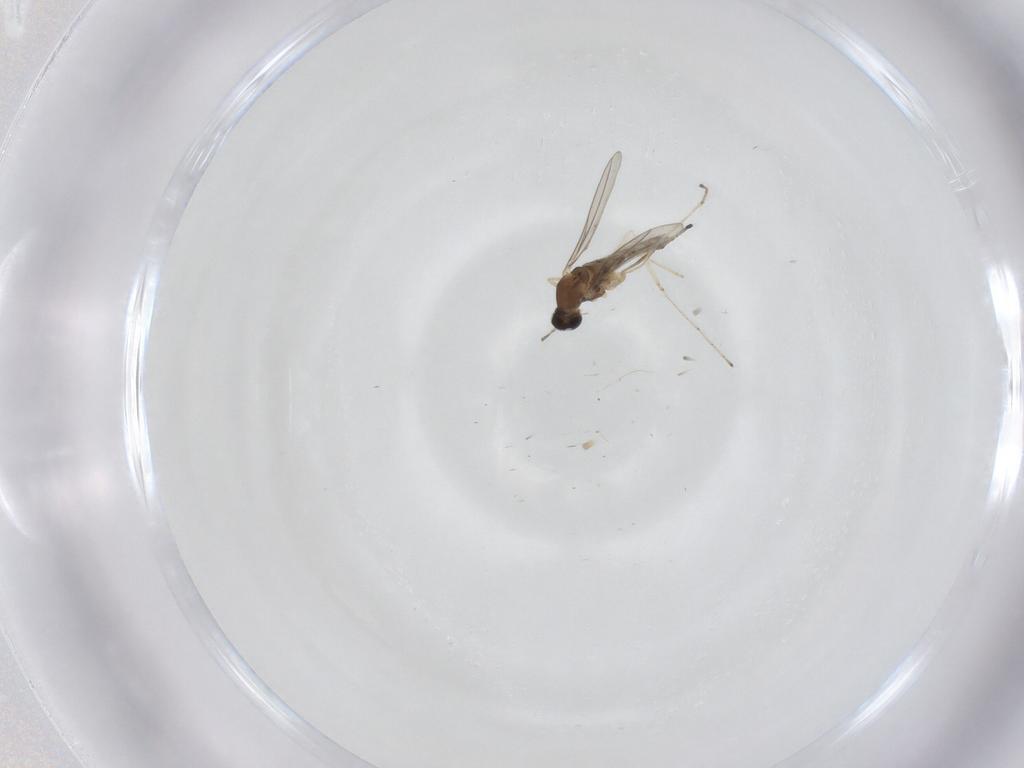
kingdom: Animalia
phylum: Arthropoda
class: Insecta
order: Diptera
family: Cecidomyiidae
